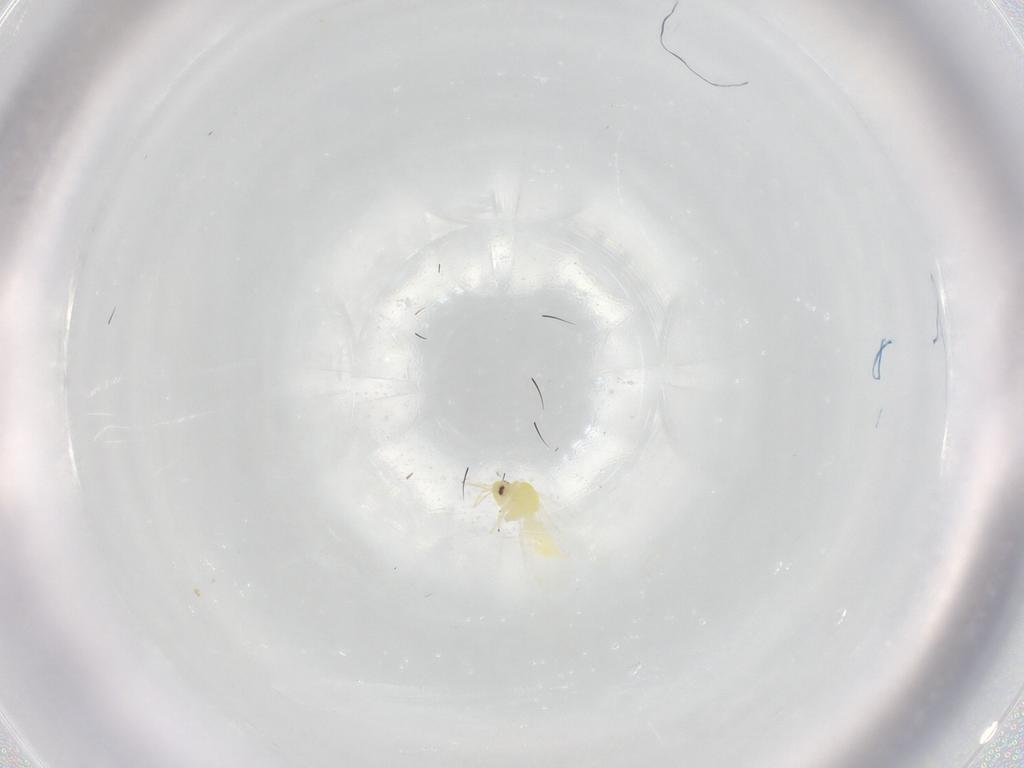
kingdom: Animalia
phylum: Arthropoda
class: Insecta
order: Hemiptera
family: Aleyrodidae
